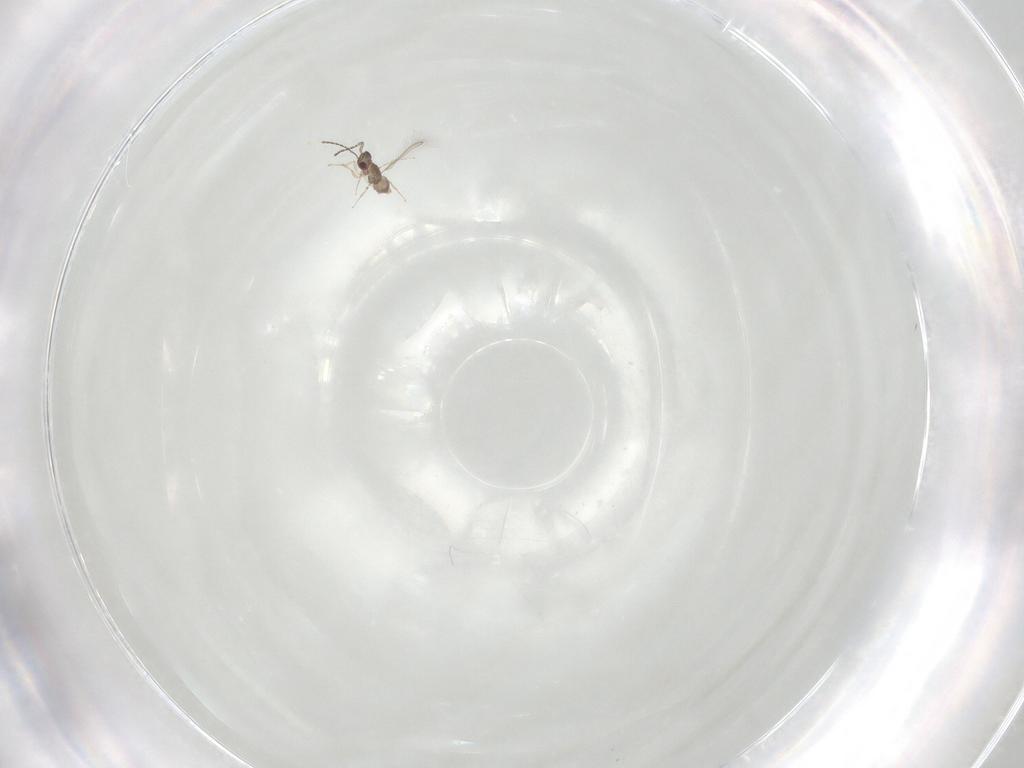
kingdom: Animalia
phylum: Arthropoda
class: Insecta
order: Hymenoptera
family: Mymaridae
